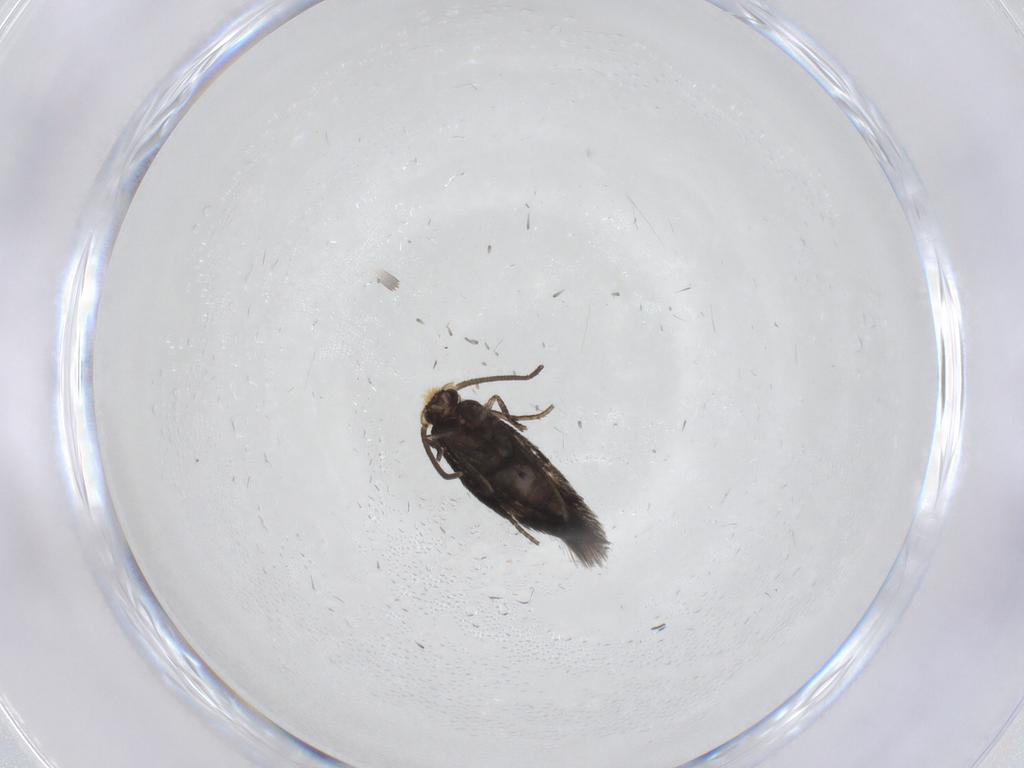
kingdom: Animalia
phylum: Arthropoda
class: Insecta
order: Lepidoptera
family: Nepticulidae
